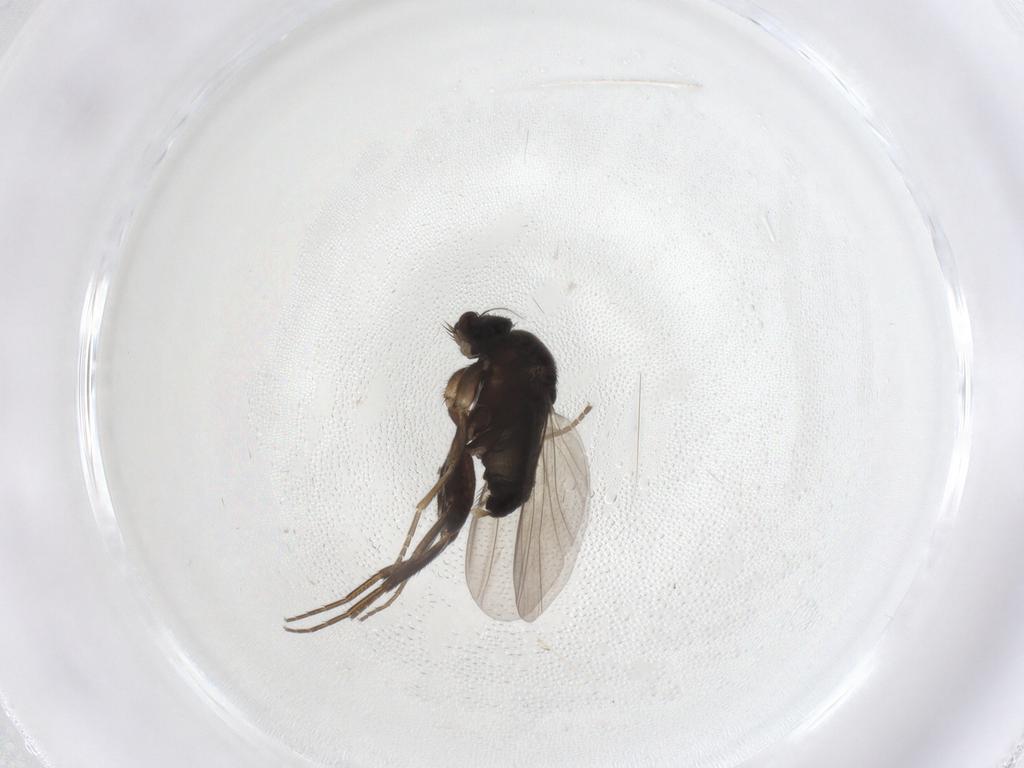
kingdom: Animalia
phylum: Arthropoda
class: Insecta
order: Diptera
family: Phoridae
